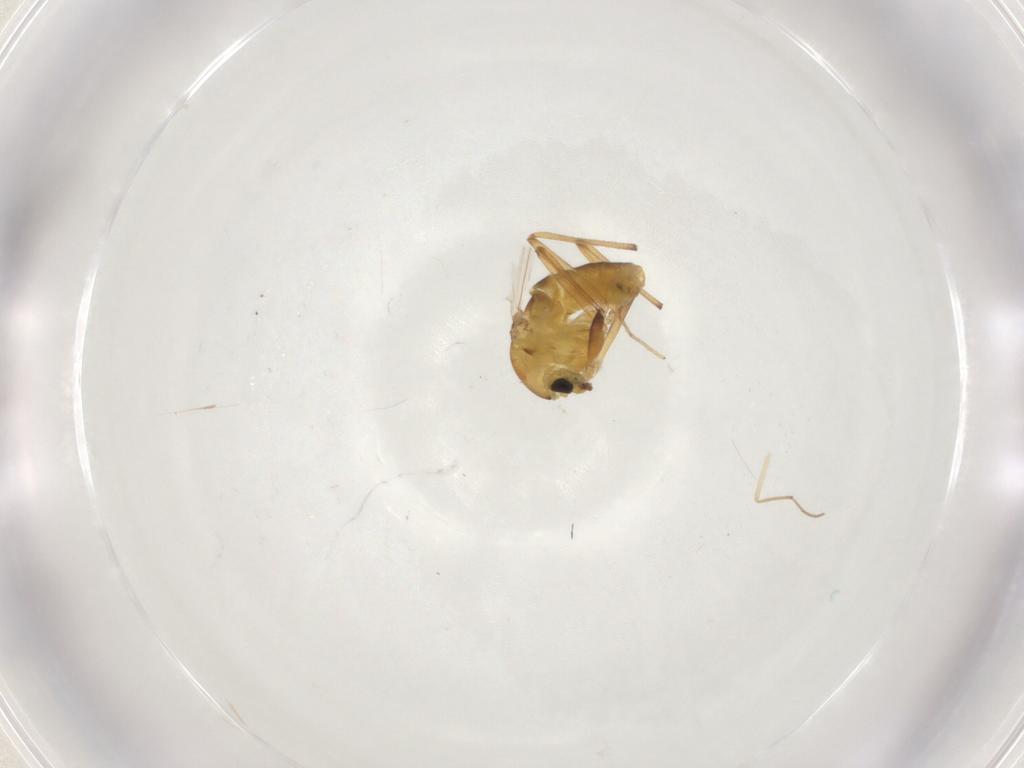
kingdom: Animalia
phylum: Arthropoda
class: Insecta
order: Diptera
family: Chironomidae
